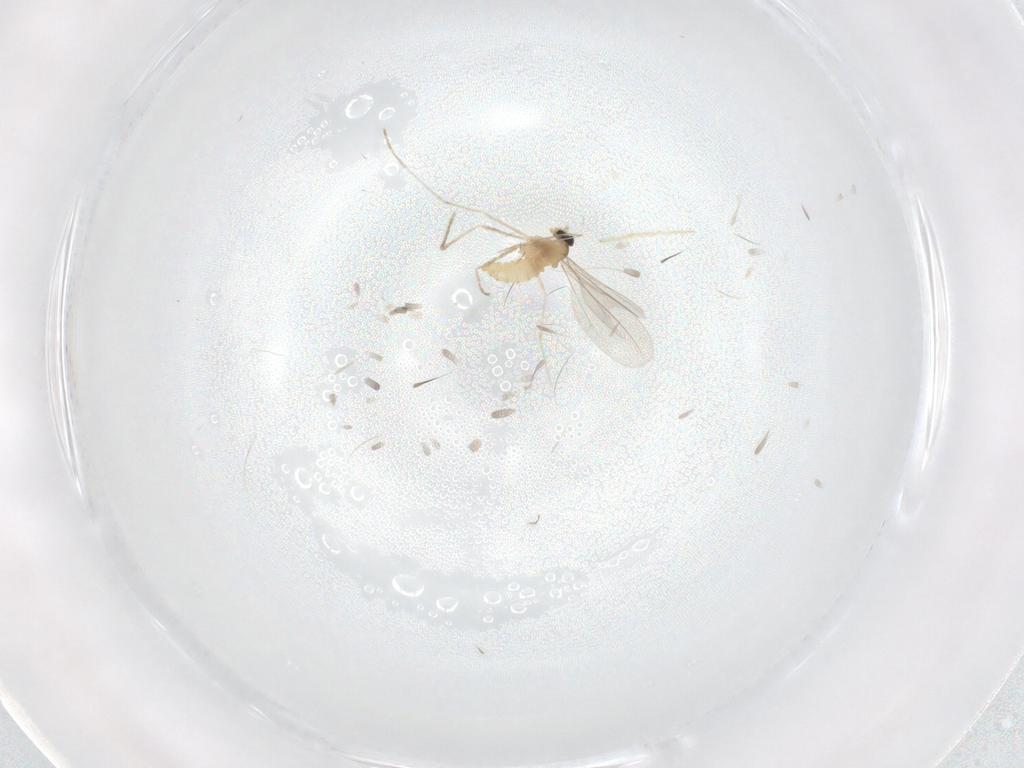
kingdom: Animalia
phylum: Arthropoda
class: Insecta
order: Diptera
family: Cecidomyiidae
